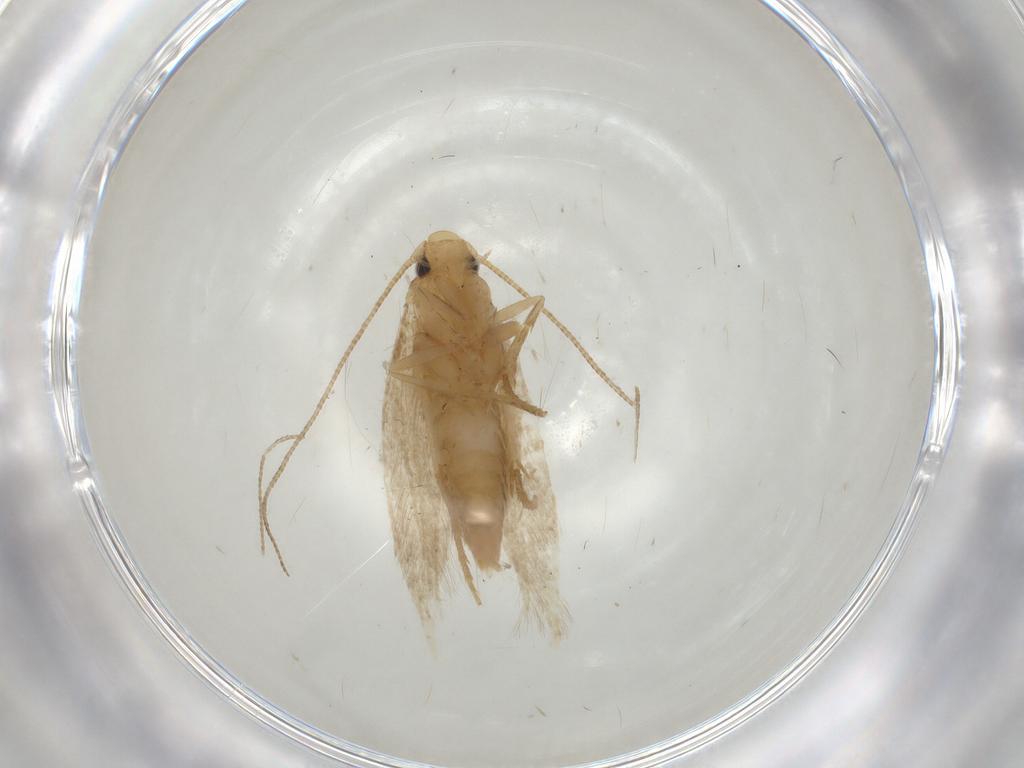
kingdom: Animalia
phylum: Arthropoda
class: Insecta
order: Lepidoptera
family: Tineidae
